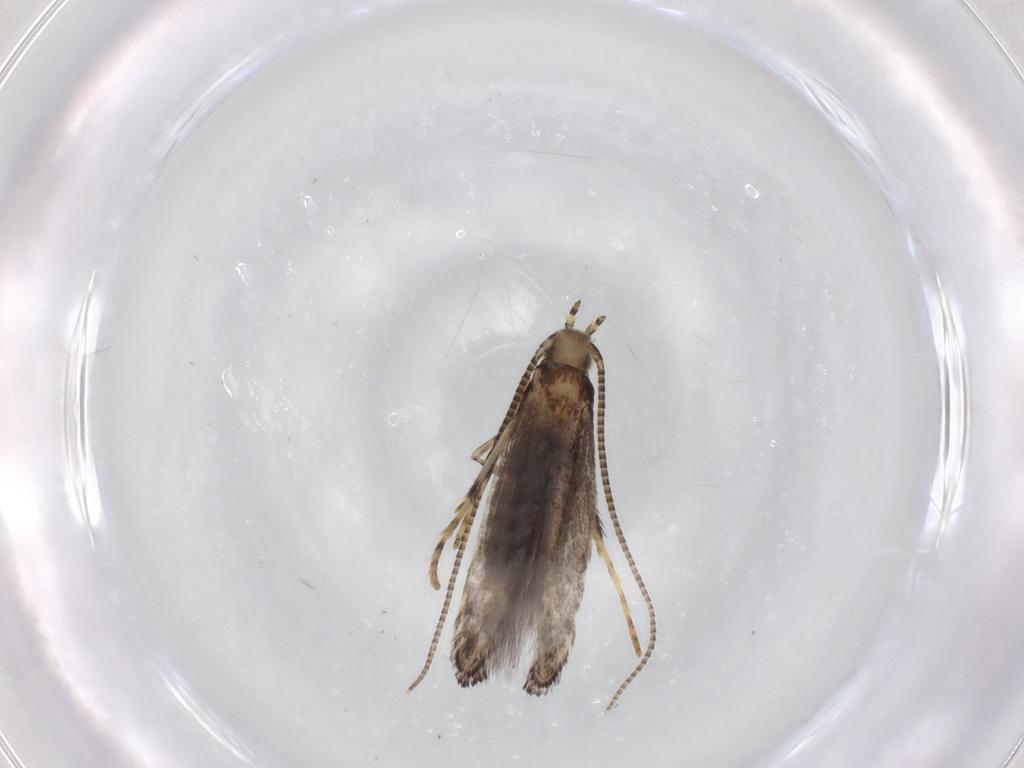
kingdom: Animalia
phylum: Arthropoda
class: Insecta
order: Lepidoptera
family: Gracillariidae
